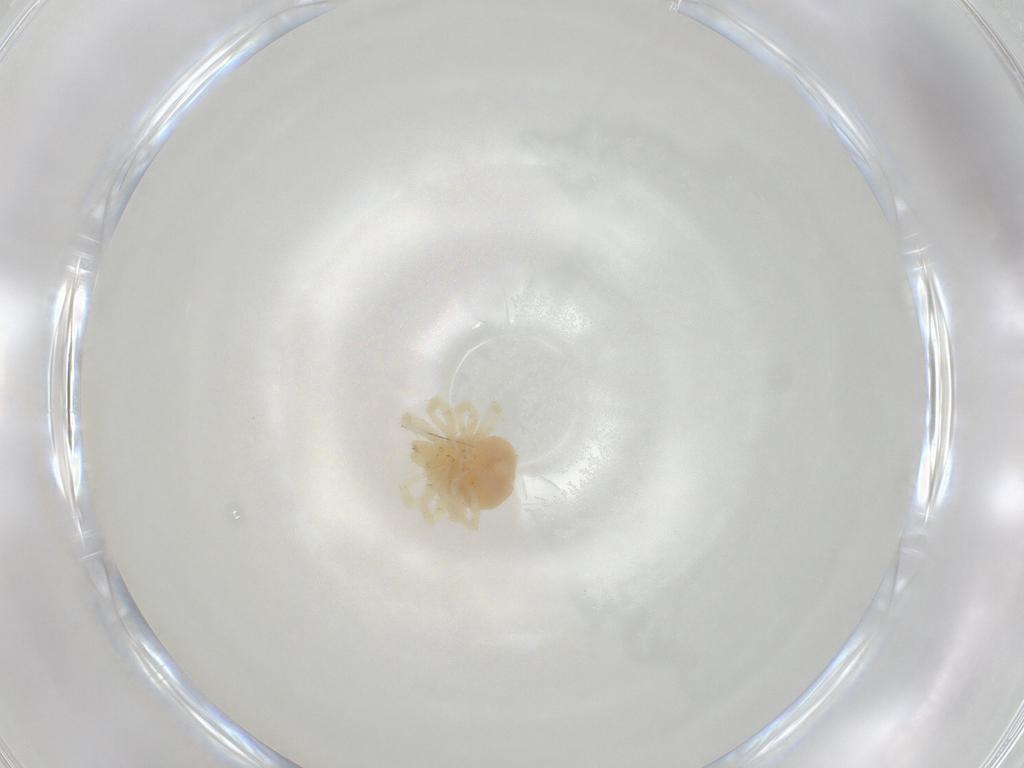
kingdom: Animalia
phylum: Arthropoda
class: Arachnida
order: Trombidiformes
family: Anystidae
